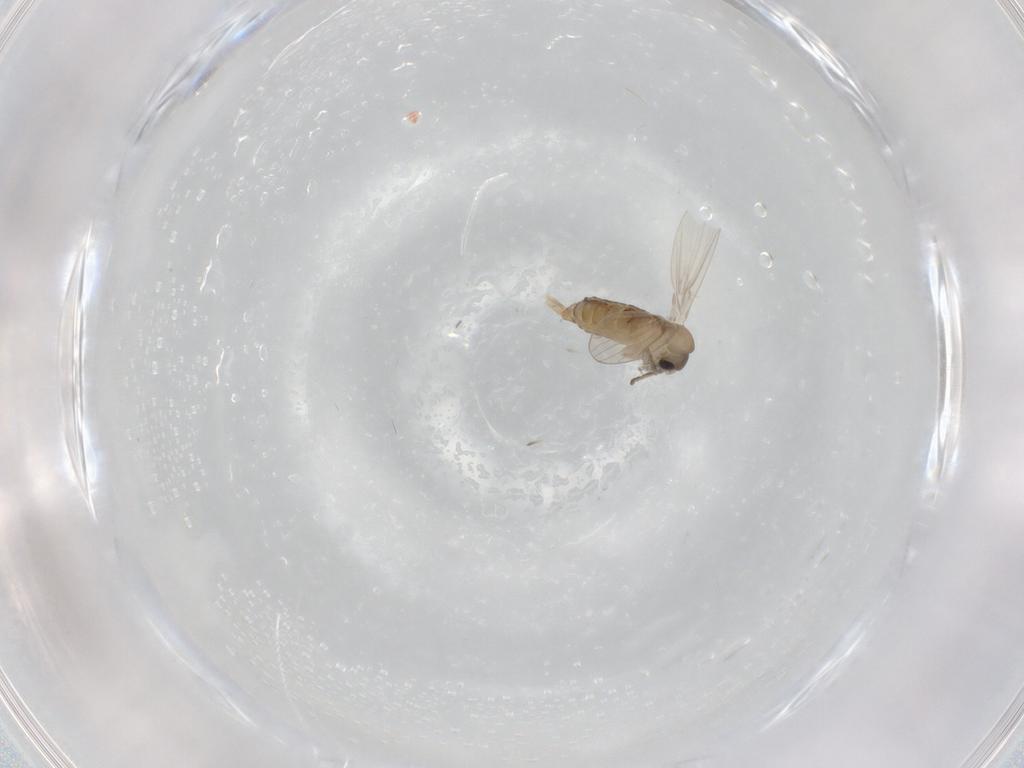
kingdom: Animalia
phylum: Arthropoda
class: Insecta
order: Diptera
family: Psychodidae
